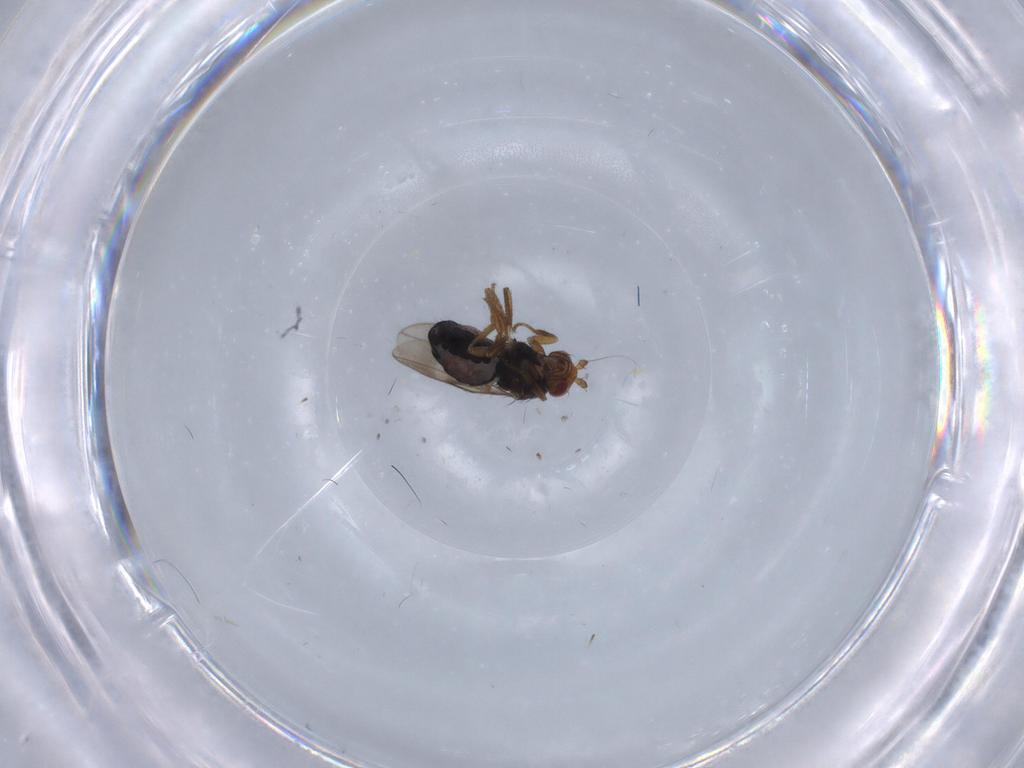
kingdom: Animalia
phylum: Arthropoda
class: Insecta
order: Diptera
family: Sphaeroceridae
